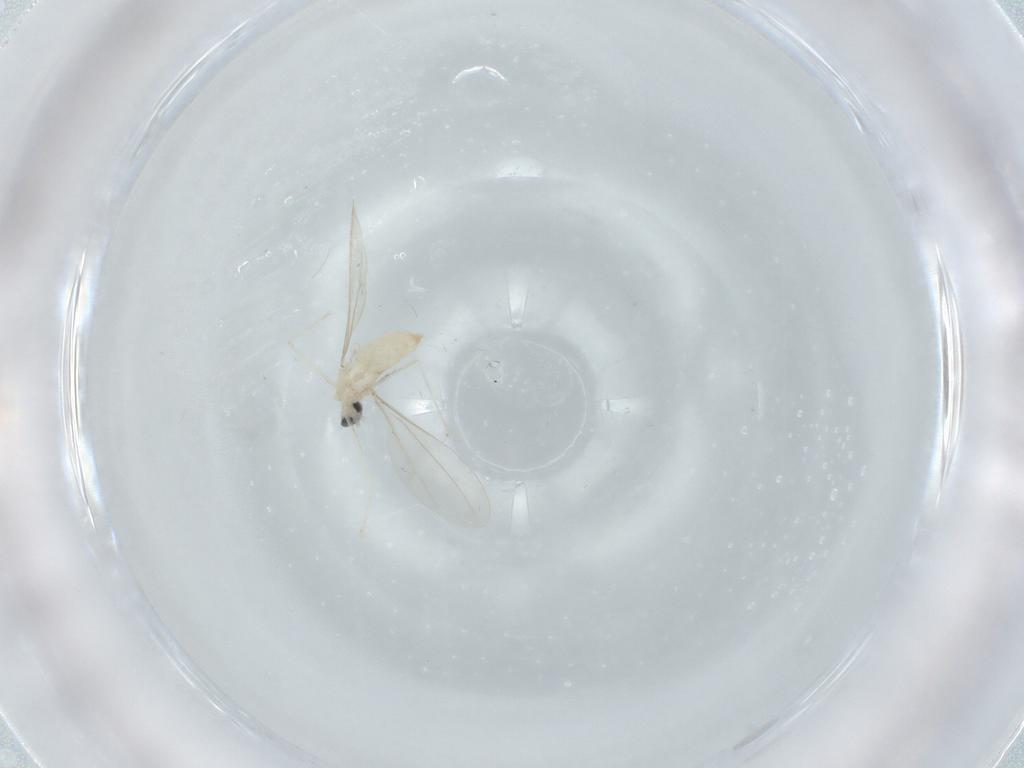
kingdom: Animalia
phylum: Arthropoda
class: Insecta
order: Diptera
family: Cecidomyiidae
